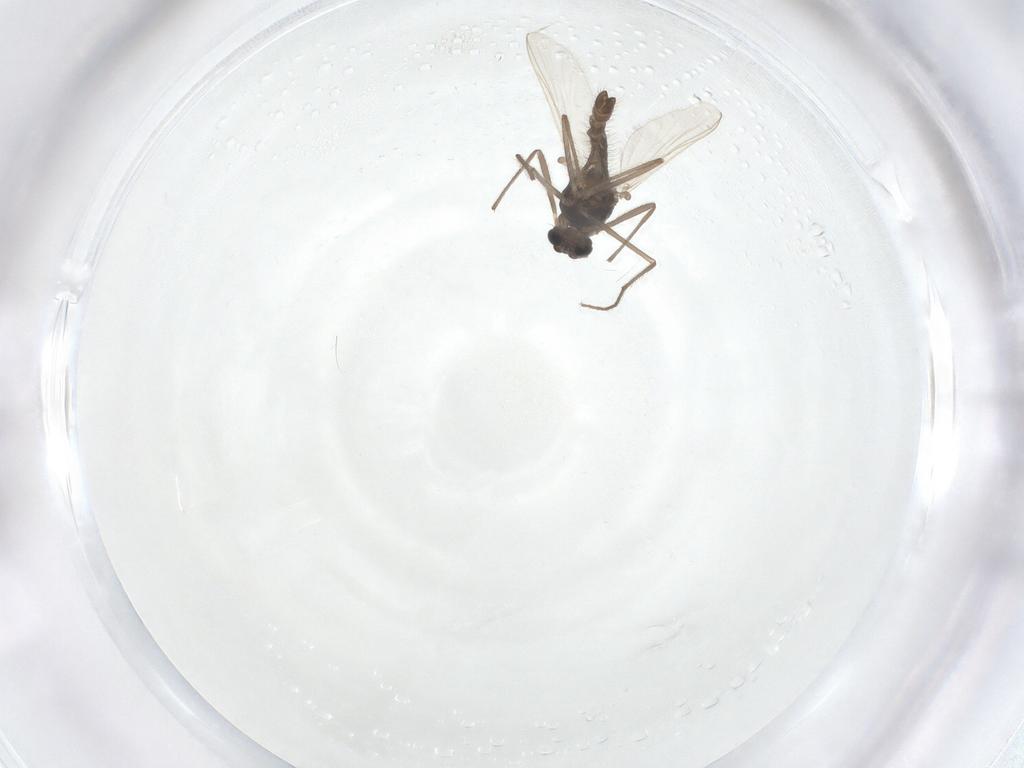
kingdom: Animalia
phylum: Arthropoda
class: Insecta
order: Diptera
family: Chironomidae
